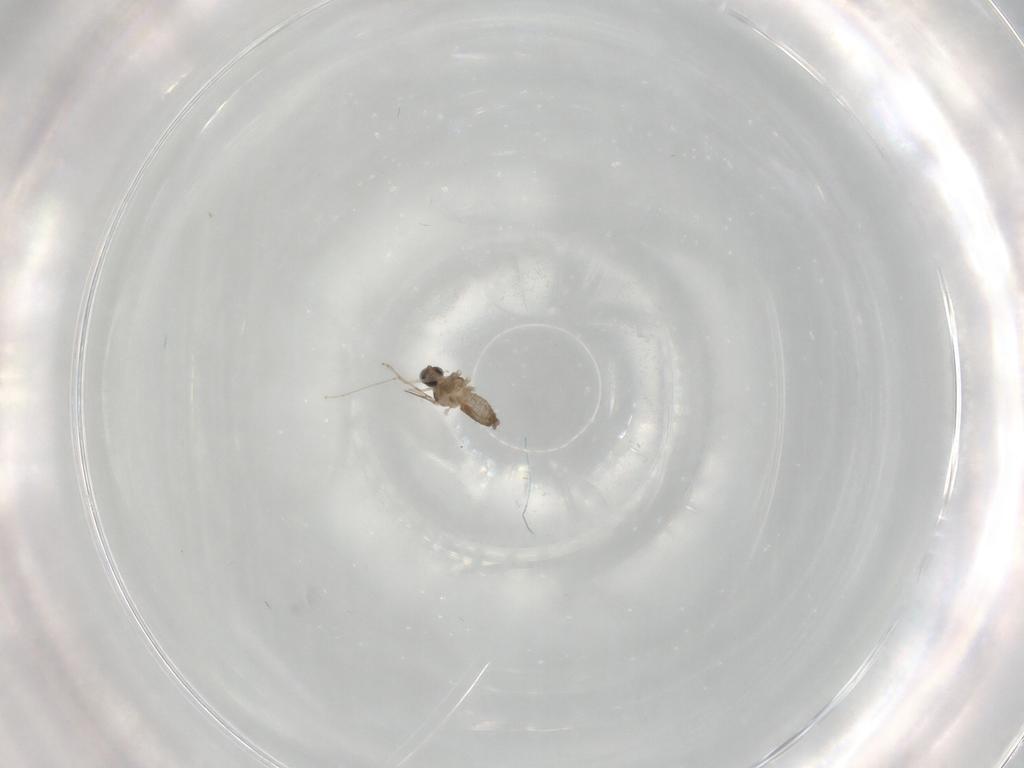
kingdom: Animalia
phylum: Arthropoda
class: Insecta
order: Diptera
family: Cecidomyiidae
